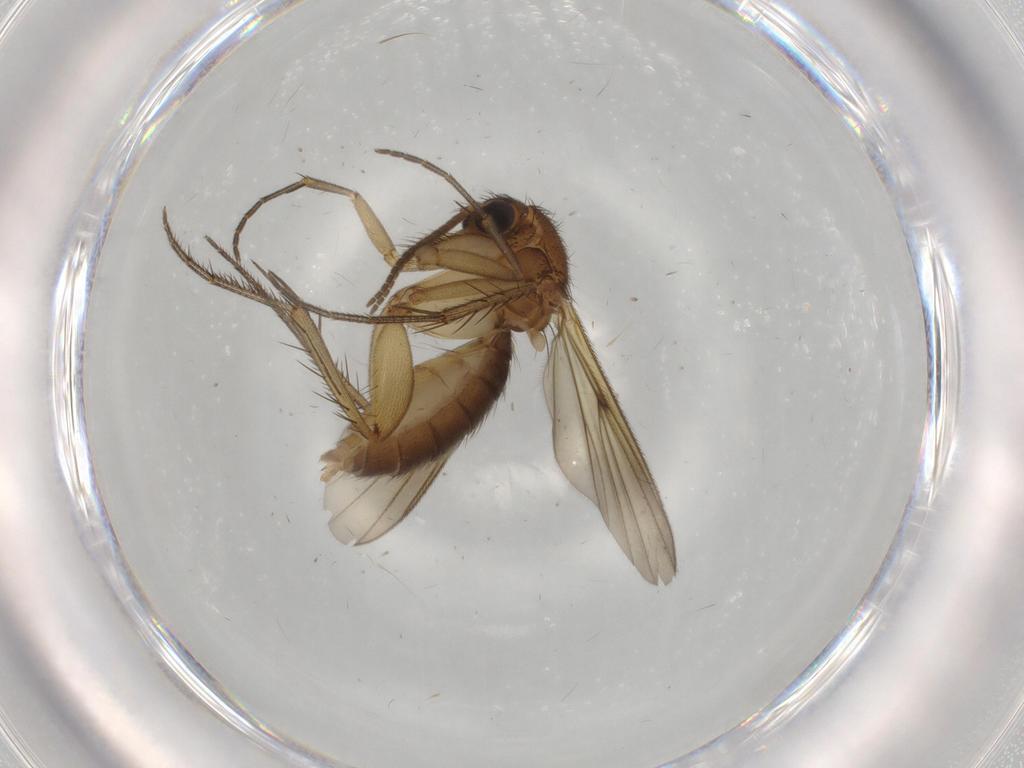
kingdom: Animalia
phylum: Arthropoda
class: Insecta
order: Diptera
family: Mycetophilidae
